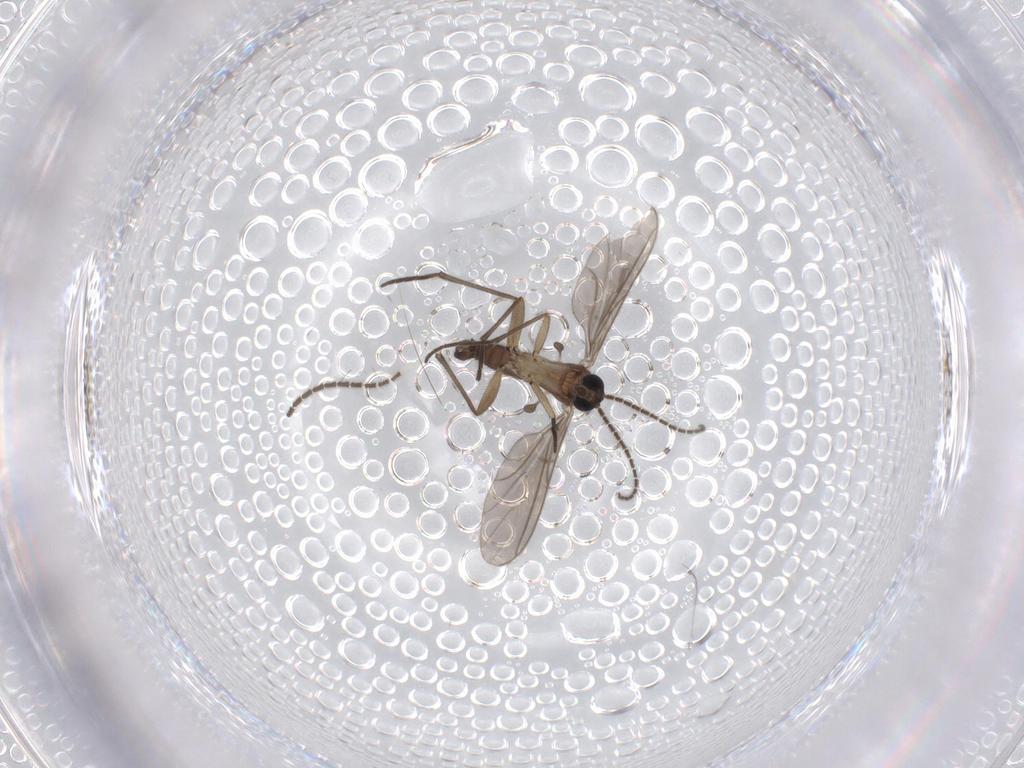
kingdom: Animalia
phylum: Arthropoda
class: Insecta
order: Diptera
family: Sciaridae
